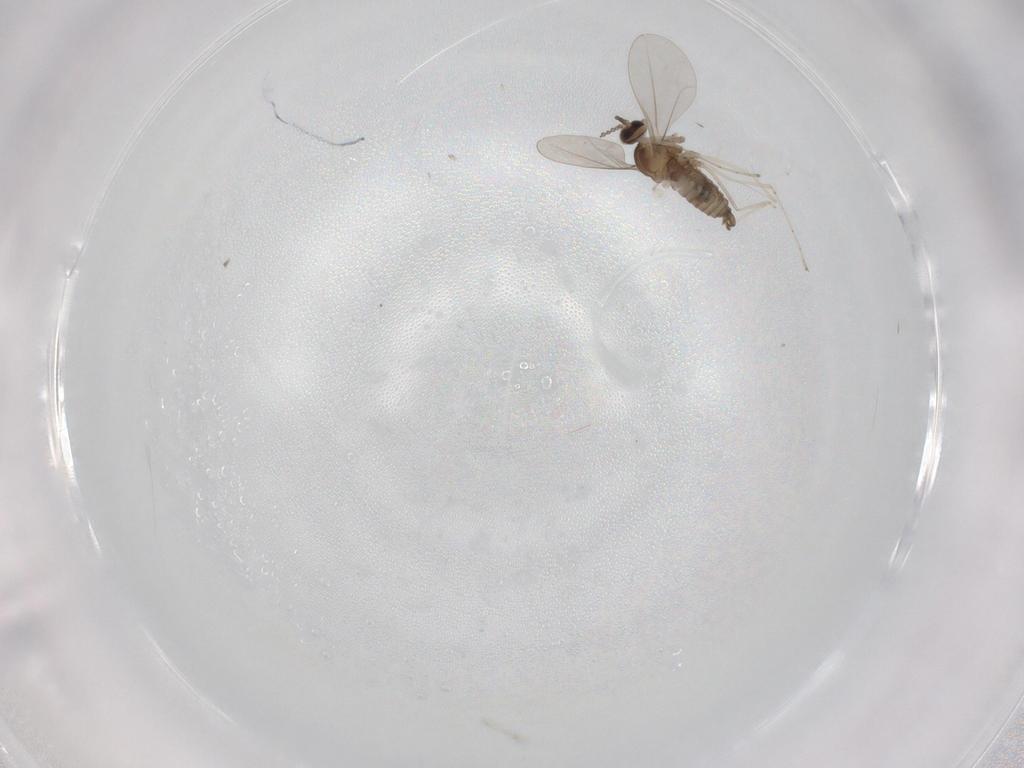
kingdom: Animalia
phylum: Arthropoda
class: Insecta
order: Diptera
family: Cecidomyiidae
